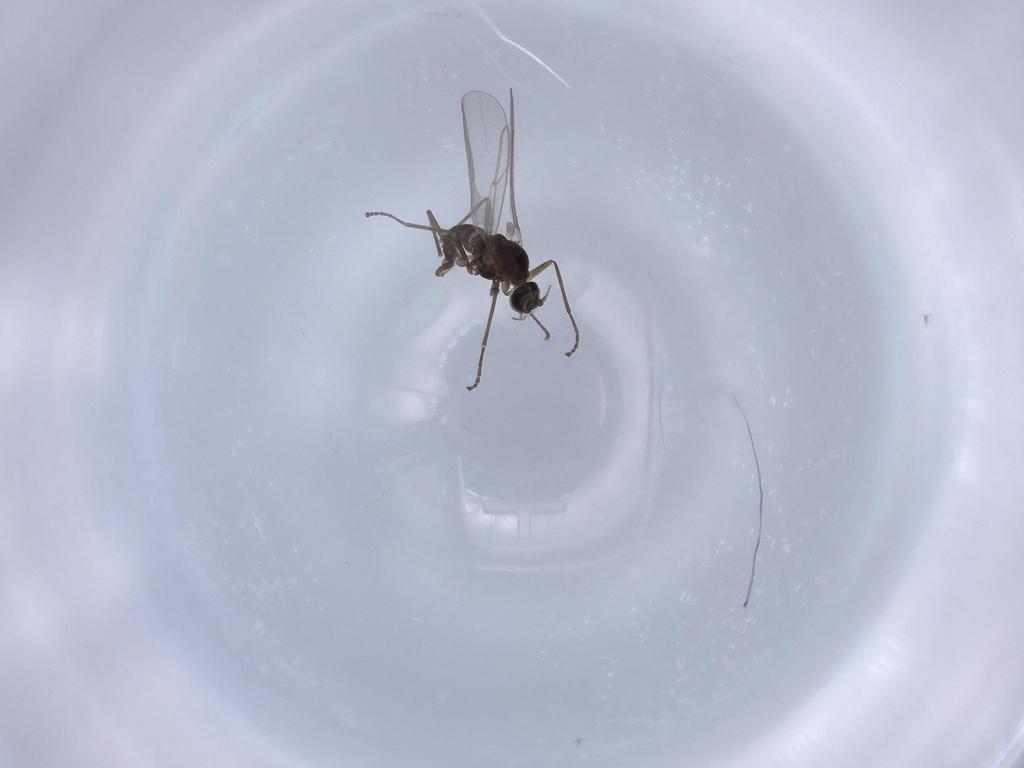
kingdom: Animalia
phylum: Arthropoda
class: Insecta
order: Diptera
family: Cecidomyiidae
